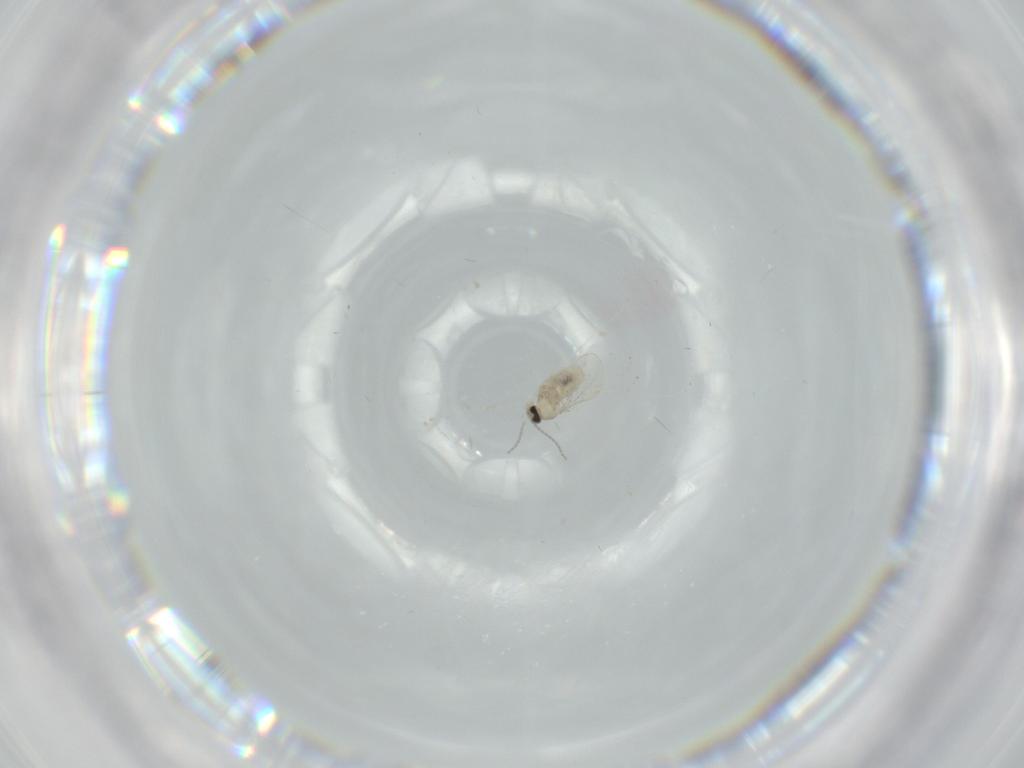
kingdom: Animalia
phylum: Arthropoda
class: Insecta
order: Diptera
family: Cecidomyiidae
